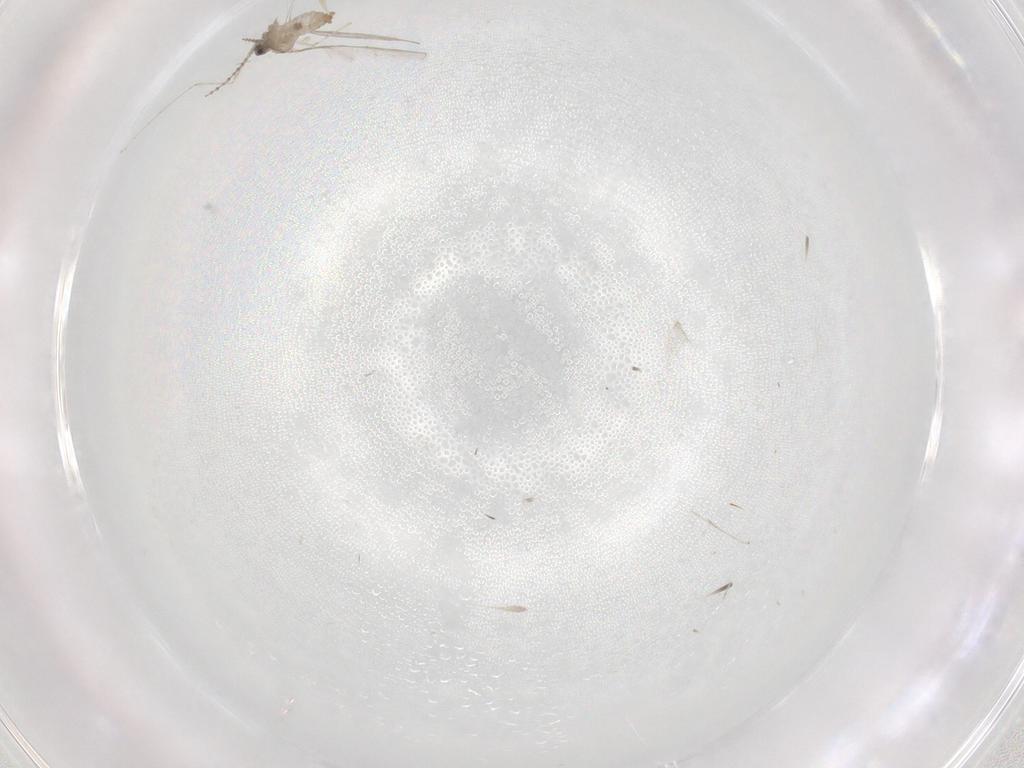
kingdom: Animalia
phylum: Arthropoda
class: Insecta
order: Diptera
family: Cecidomyiidae
